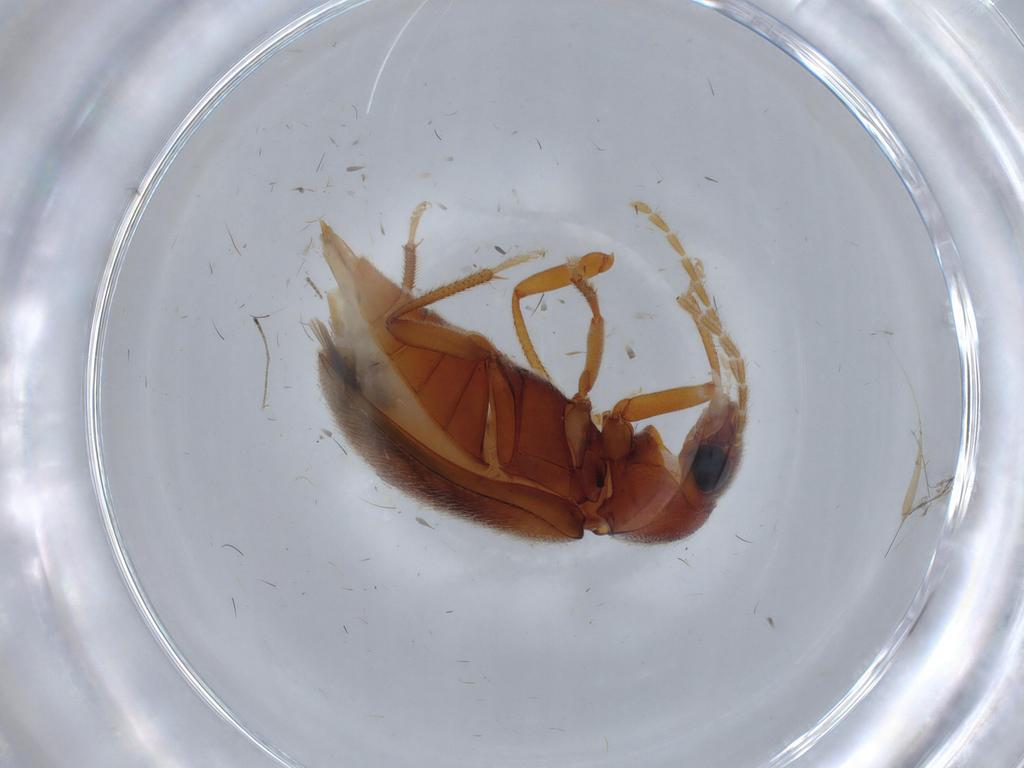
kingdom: Animalia
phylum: Arthropoda
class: Insecta
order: Coleoptera
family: Ptilodactylidae
